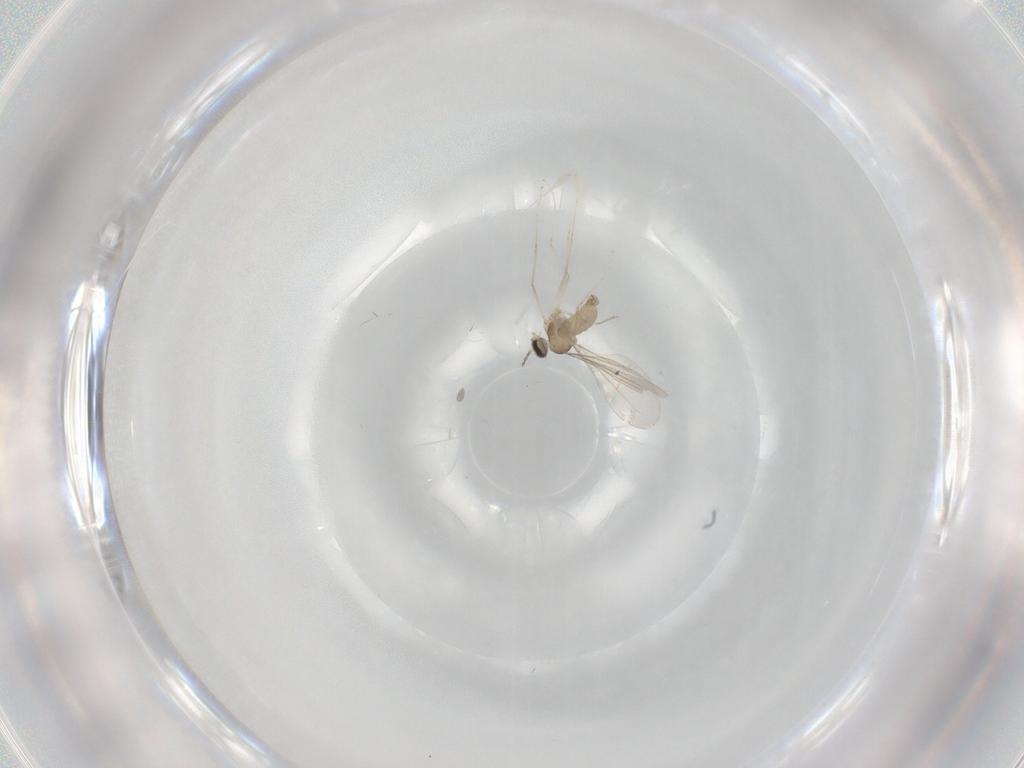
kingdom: Animalia
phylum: Arthropoda
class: Insecta
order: Diptera
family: Cecidomyiidae
